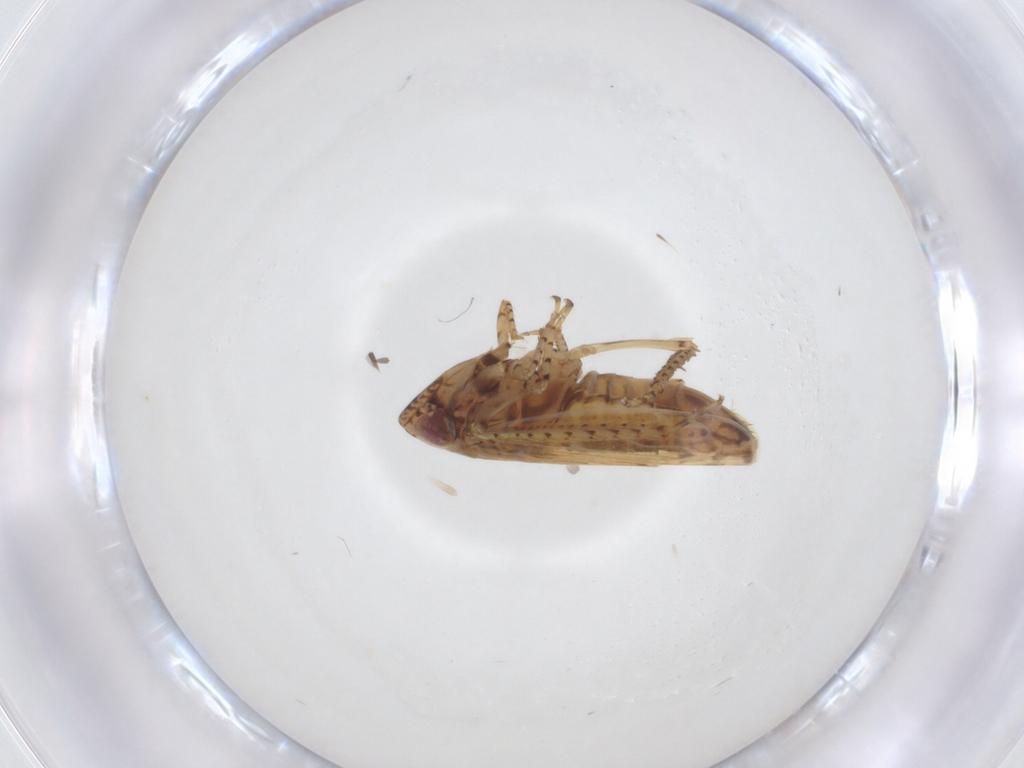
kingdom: Animalia
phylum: Arthropoda
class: Insecta
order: Hemiptera
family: Cicadellidae
